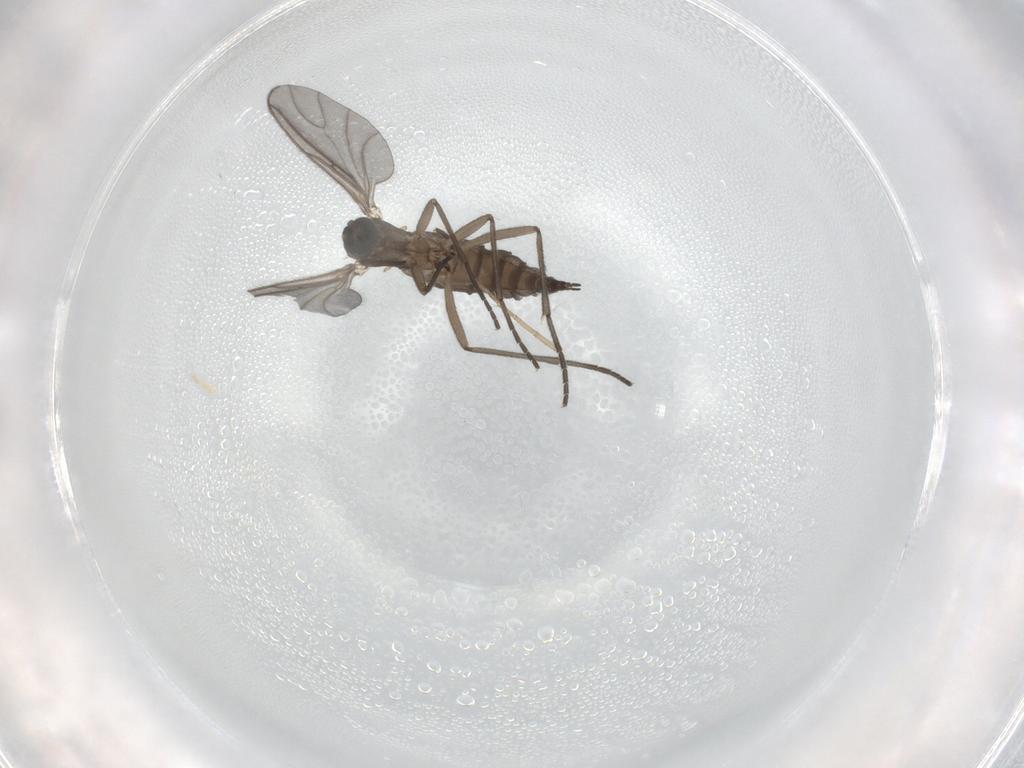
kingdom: Animalia
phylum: Arthropoda
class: Insecta
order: Diptera
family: Sciaridae
